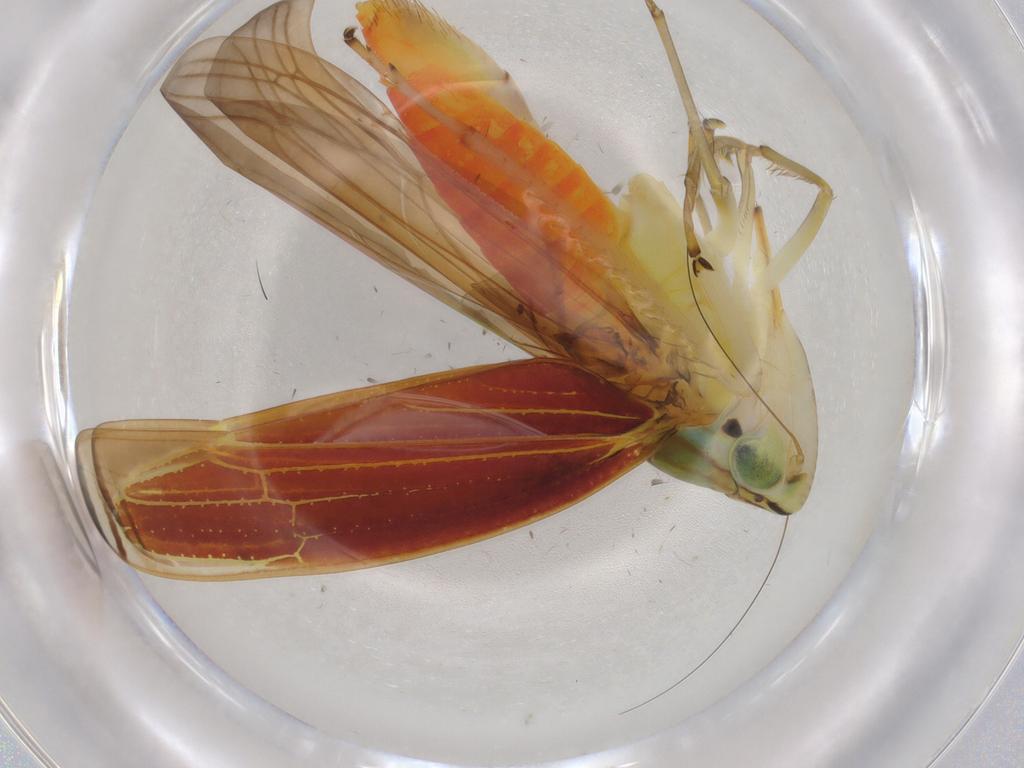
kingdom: Animalia
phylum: Arthropoda
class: Insecta
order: Hemiptera
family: Cicadellidae
